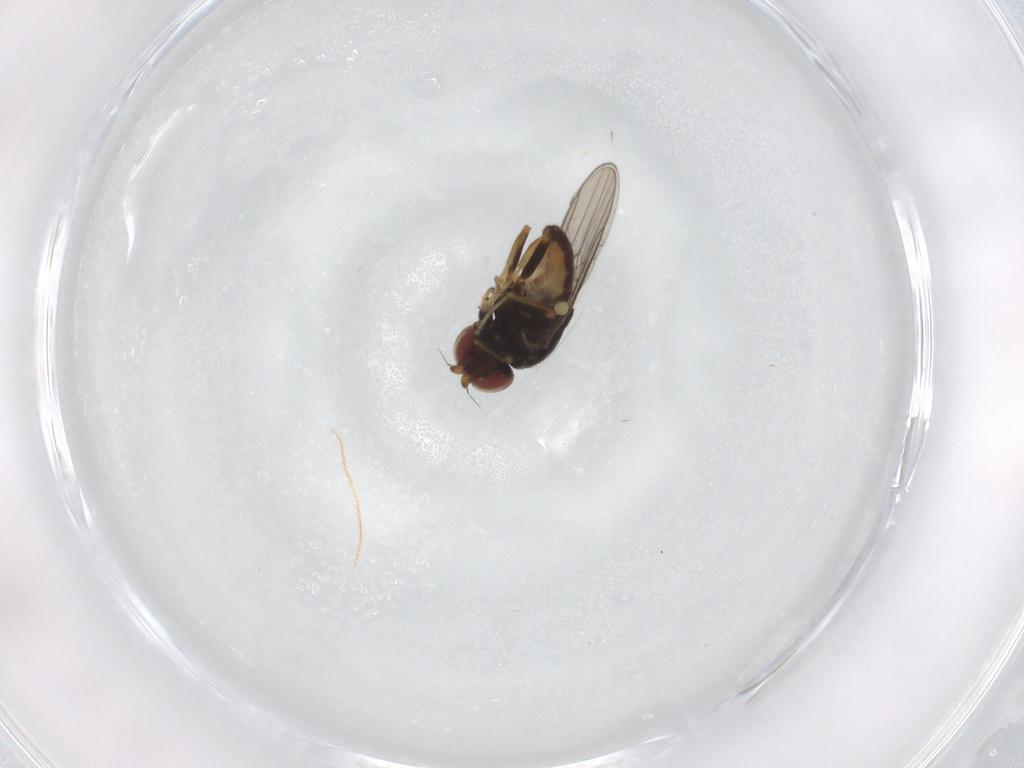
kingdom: Animalia
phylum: Arthropoda
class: Insecta
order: Diptera
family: Chloropidae
